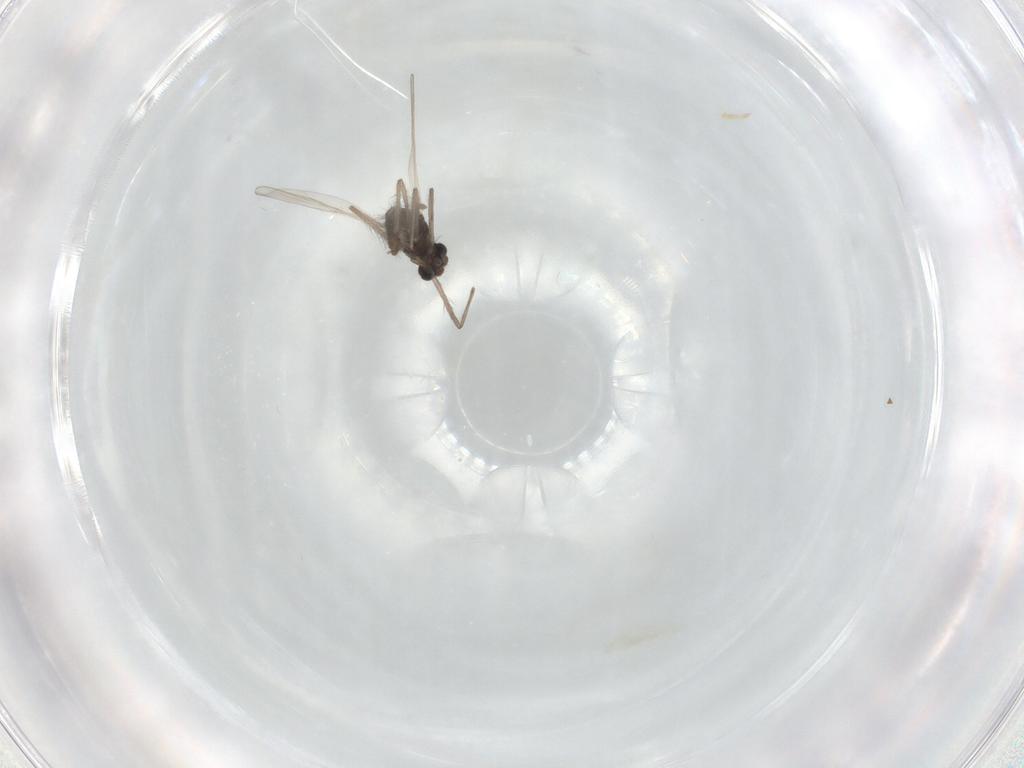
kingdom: Animalia
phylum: Arthropoda
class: Insecta
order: Diptera
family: Chironomidae
